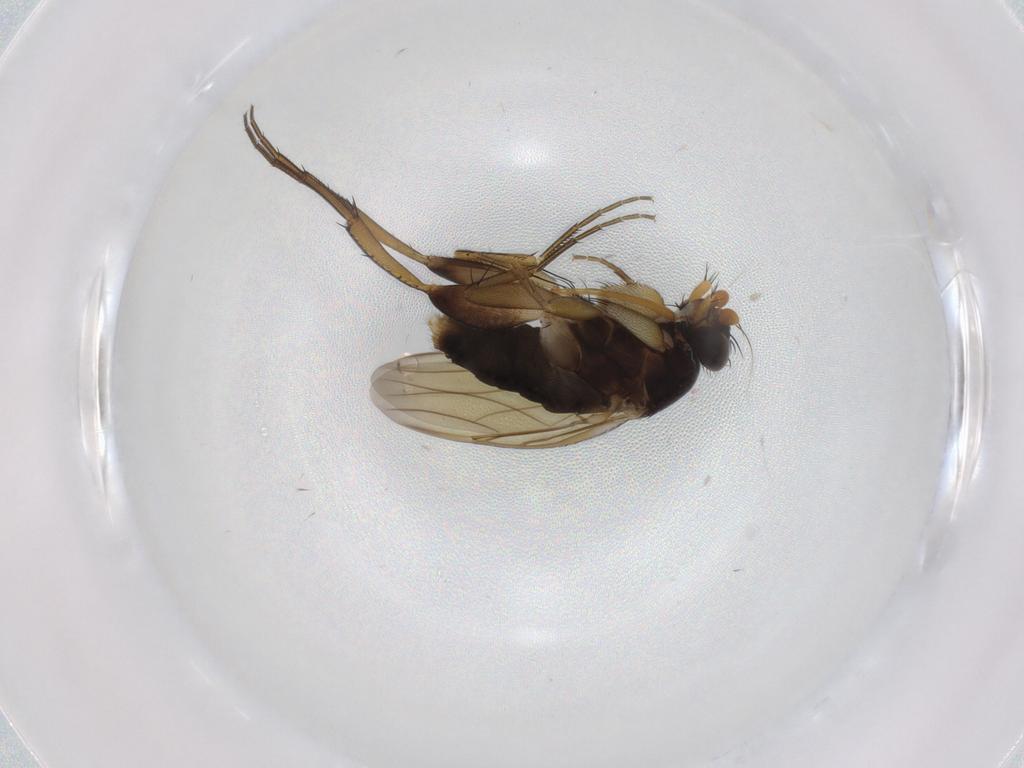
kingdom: Animalia
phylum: Arthropoda
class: Insecta
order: Diptera
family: Phoridae
